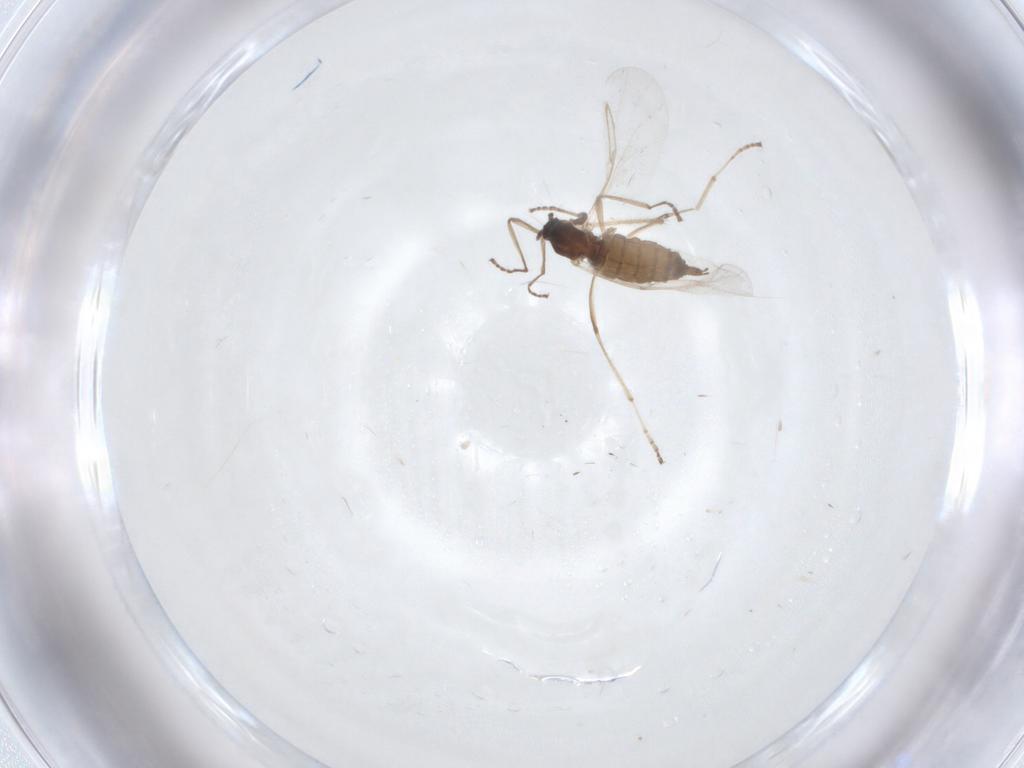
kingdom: Animalia
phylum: Arthropoda
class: Insecta
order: Diptera
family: Chironomidae
